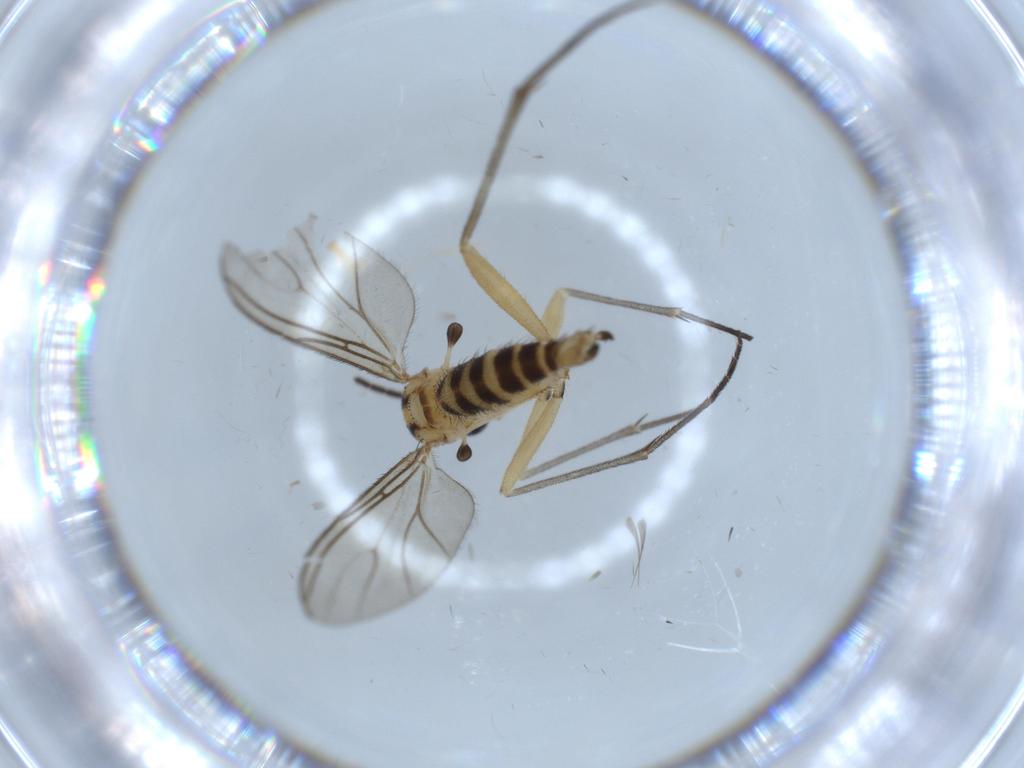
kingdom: Animalia
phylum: Arthropoda
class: Insecta
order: Diptera
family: Sciaridae
